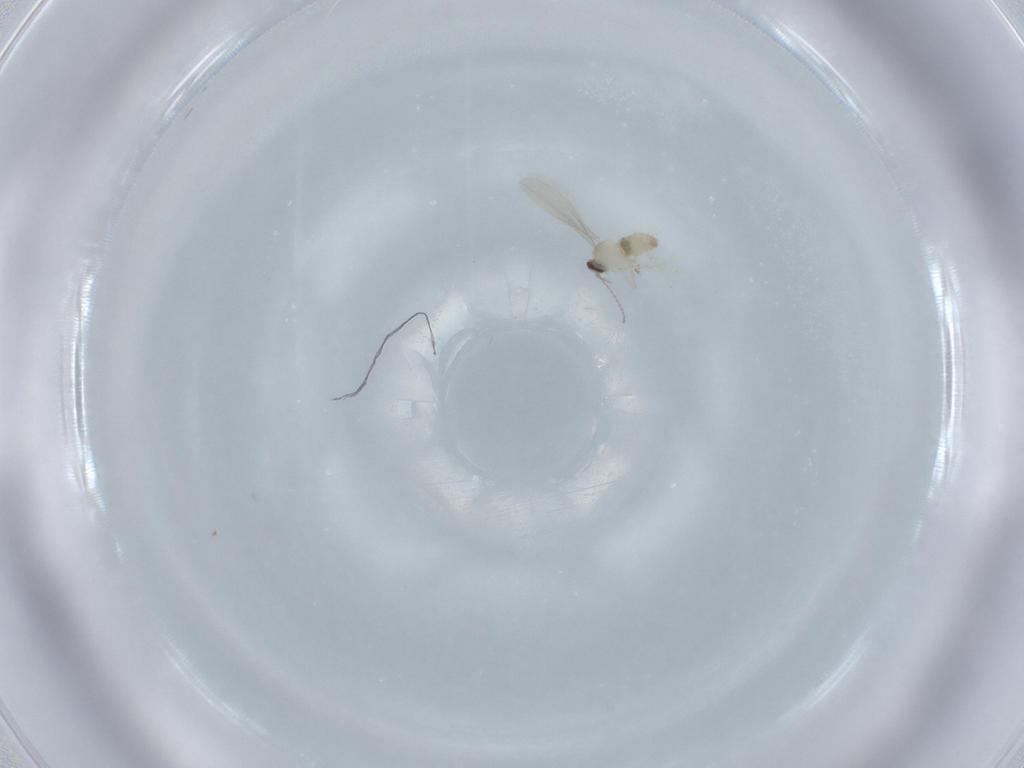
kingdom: Animalia
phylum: Arthropoda
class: Insecta
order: Diptera
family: Cecidomyiidae
